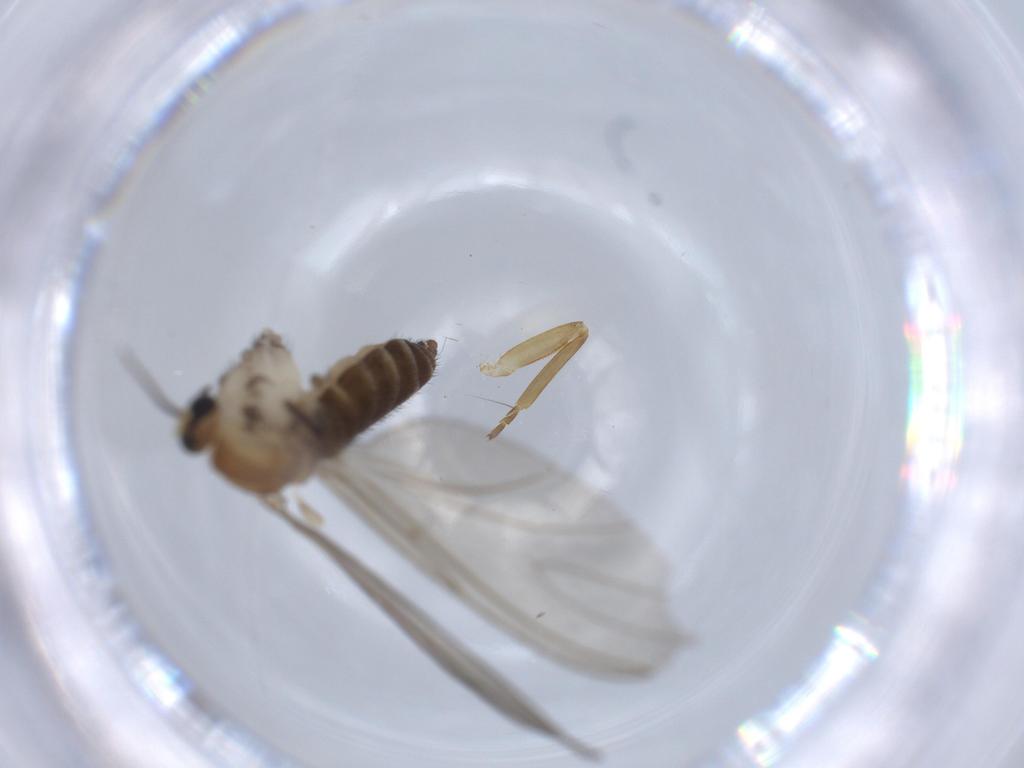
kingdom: Animalia
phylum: Arthropoda
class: Insecta
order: Diptera
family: Sciaridae
